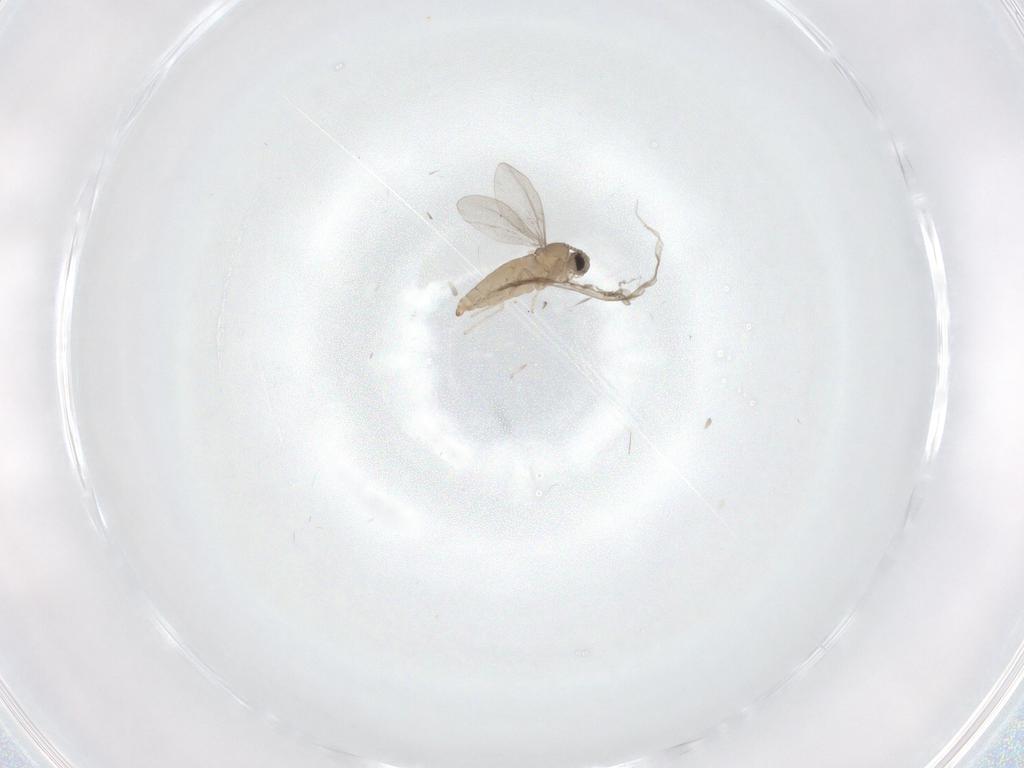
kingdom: Animalia
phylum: Arthropoda
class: Insecta
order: Diptera
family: Cecidomyiidae
